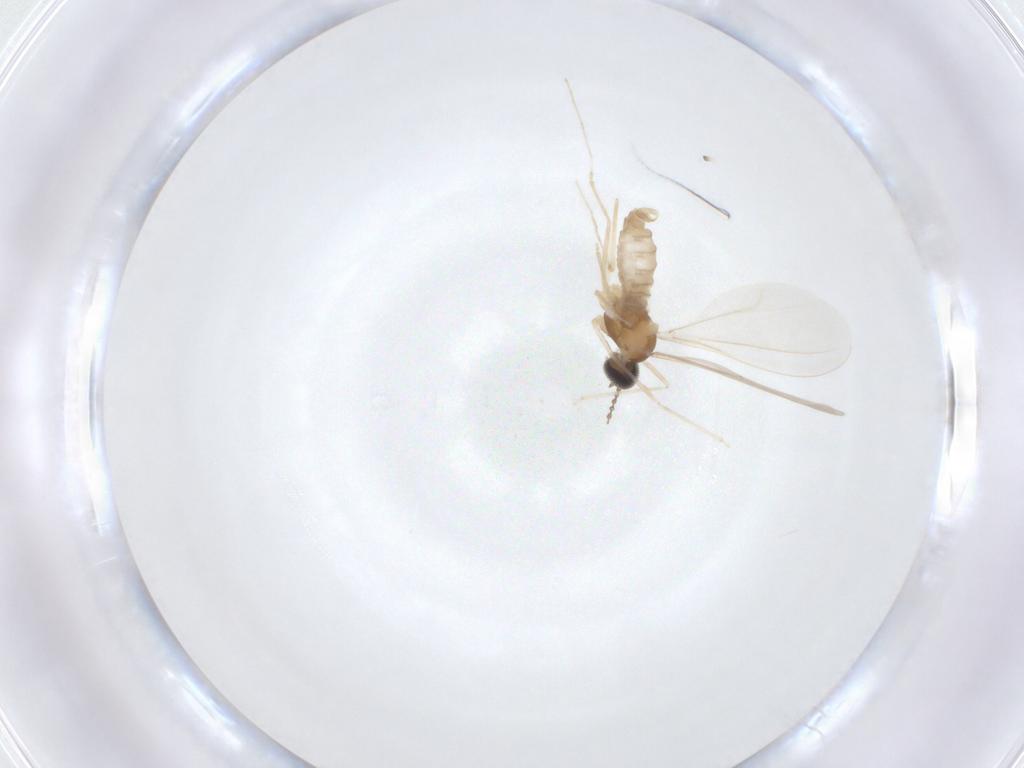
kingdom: Animalia
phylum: Arthropoda
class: Insecta
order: Diptera
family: Cecidomyiidae
